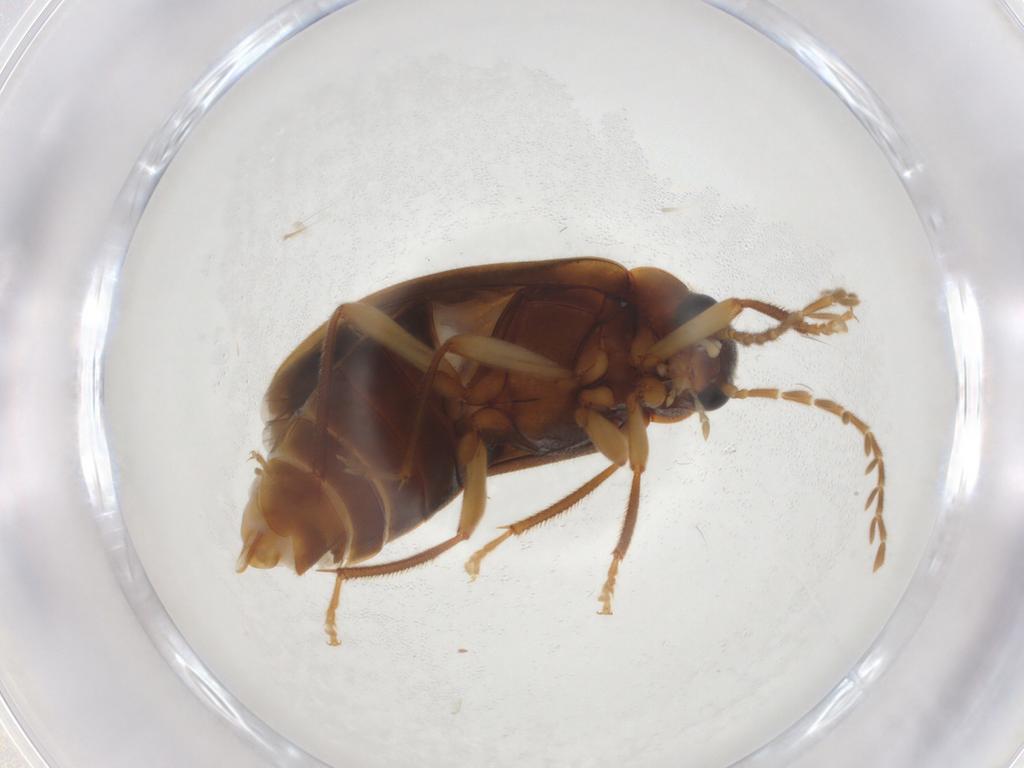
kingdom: Animalia
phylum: Arthropoda
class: Insecta
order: Coleoptera
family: Ptilodactylidae
